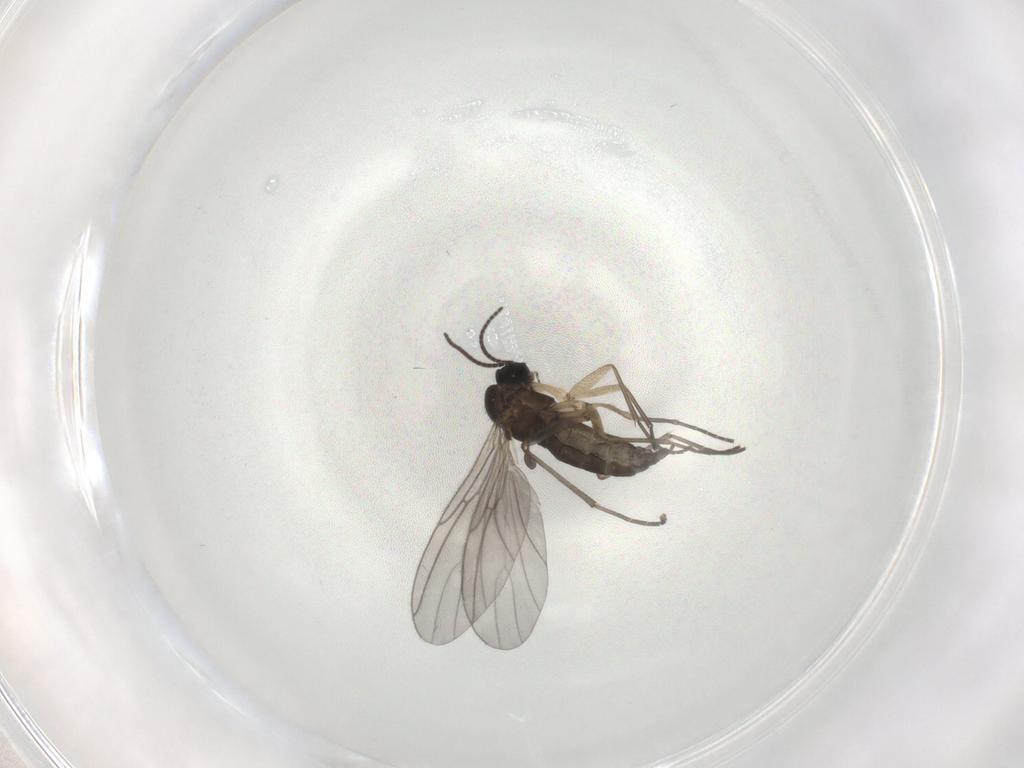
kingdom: Animalia
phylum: Arthropoda
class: Insecta
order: Diptera
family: Sciaridae
